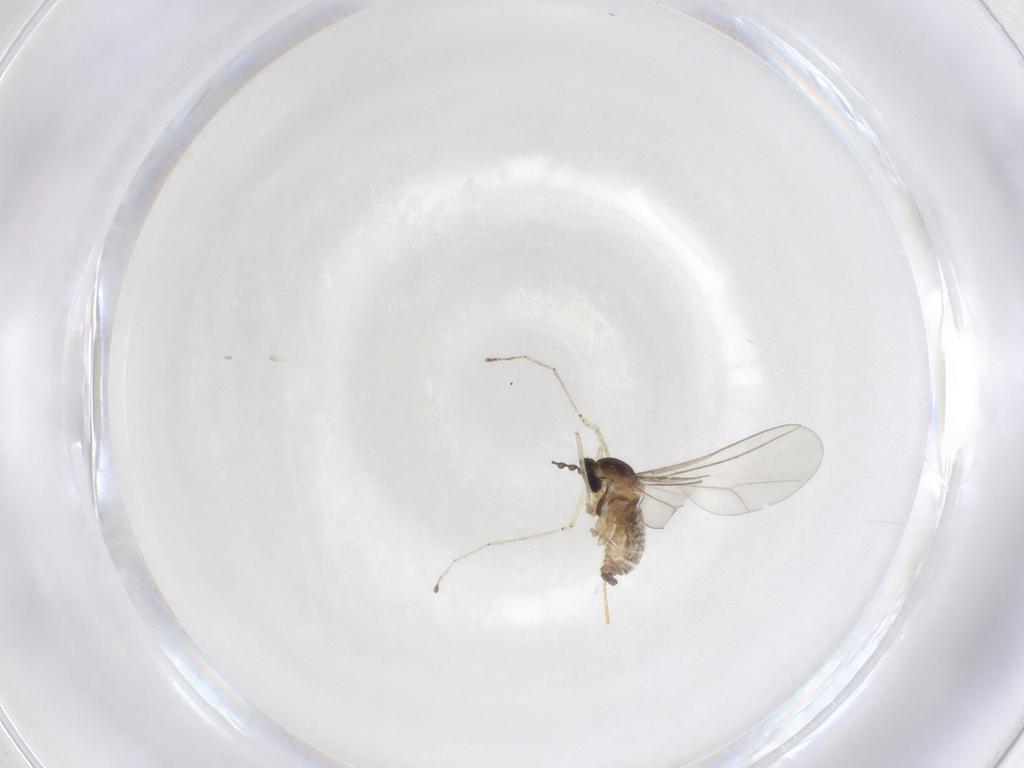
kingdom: Animalia
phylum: Arthropoda
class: Insecta
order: Diptera
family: Cecidomyiidae
